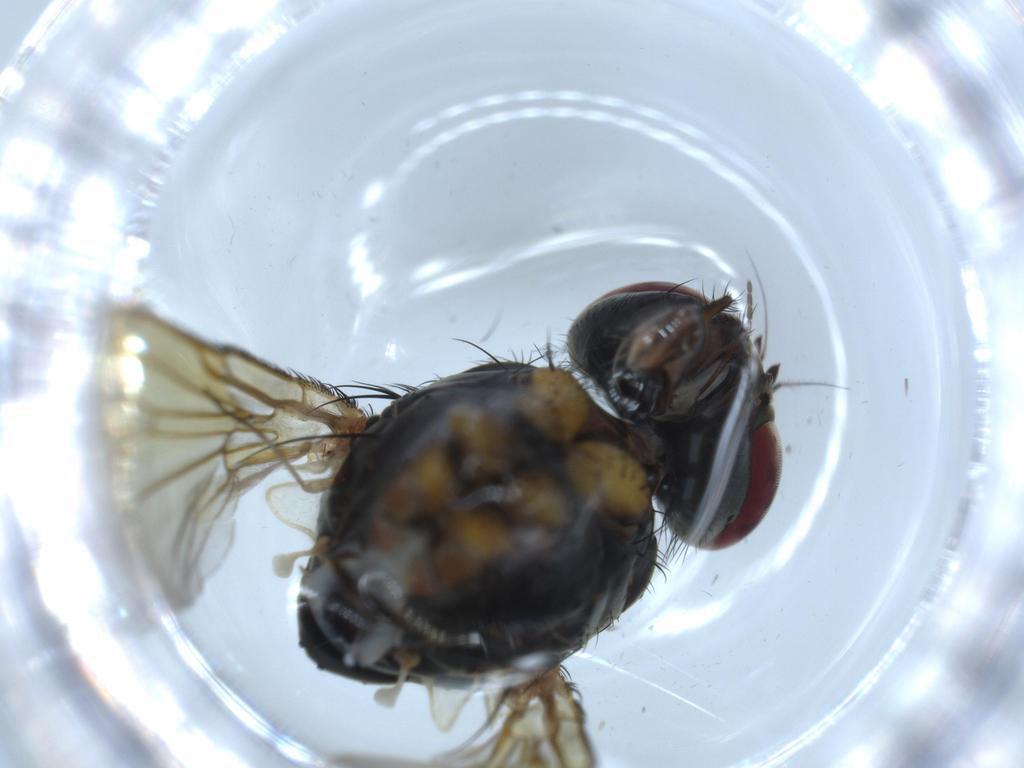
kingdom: Animalia
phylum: Arthropoda
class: Insecta
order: Diptera
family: Muscidae
